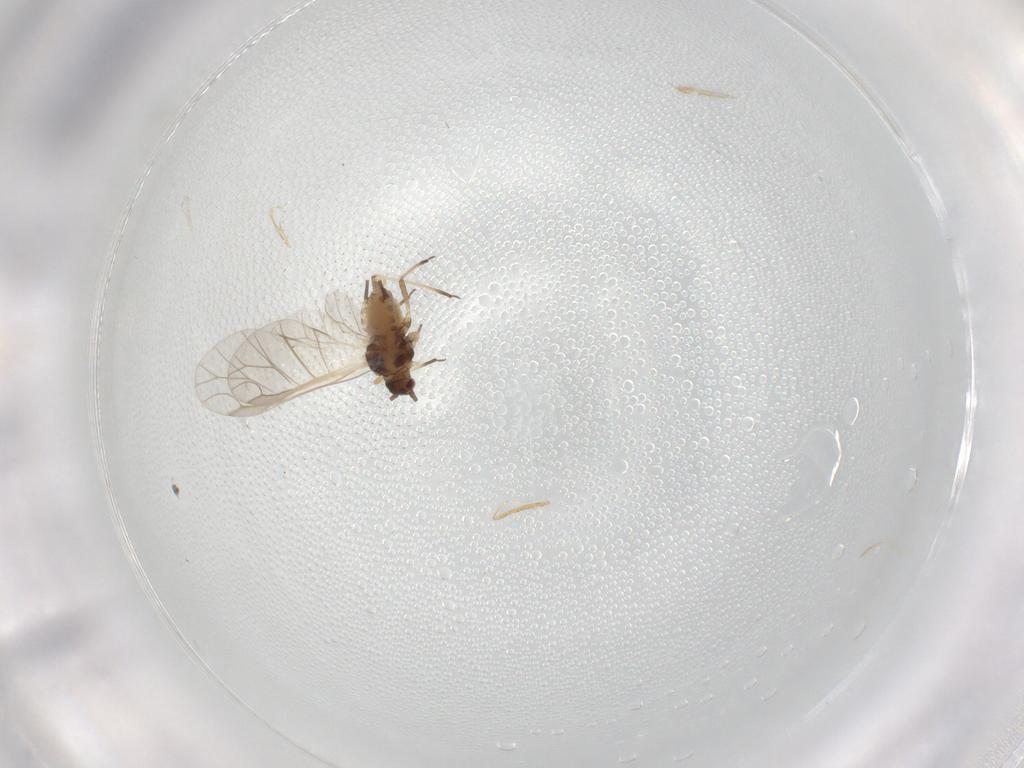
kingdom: Animalia
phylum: Arthropoda
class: Insecta
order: Hemiptera
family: Aphididae
